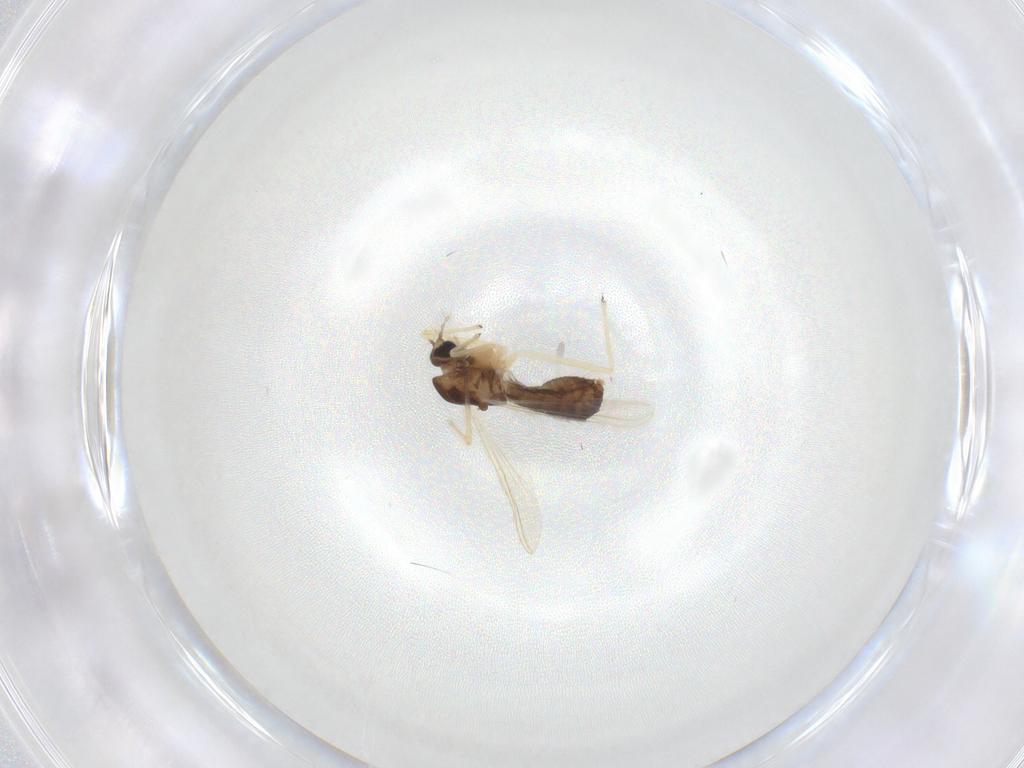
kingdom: Animalia
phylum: Arthropoda
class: Insecta
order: Diptera
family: Chironomidae
